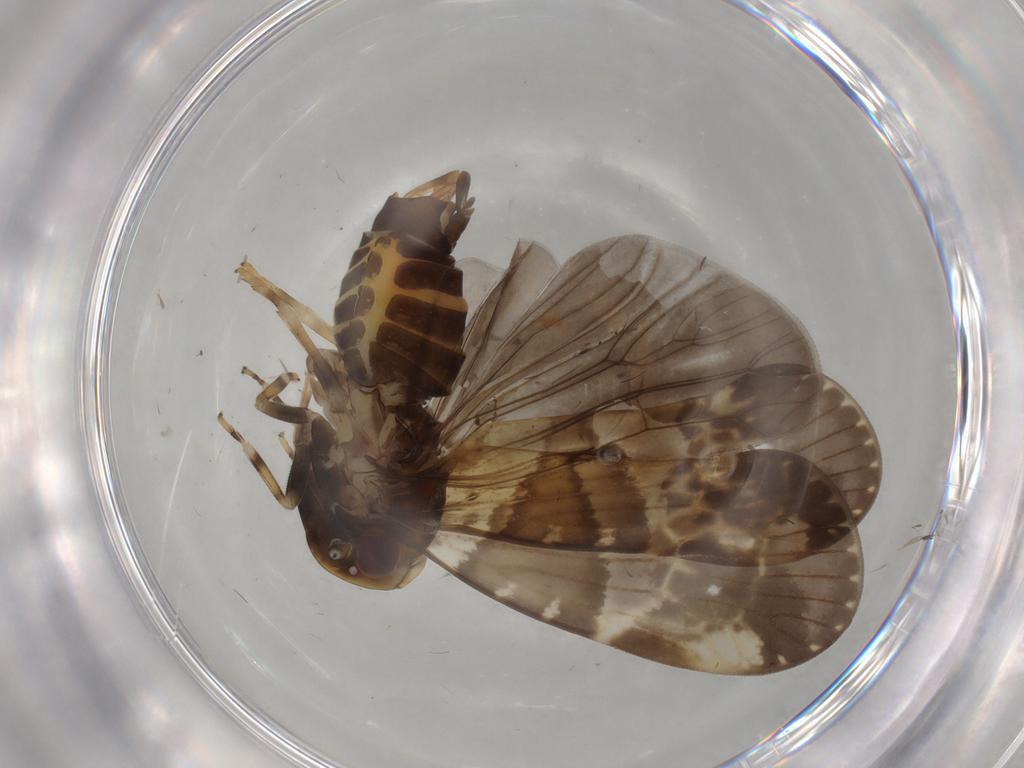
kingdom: Animalia
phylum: Arthropoda
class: Insecta
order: Hemiptera
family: Cixiidae
